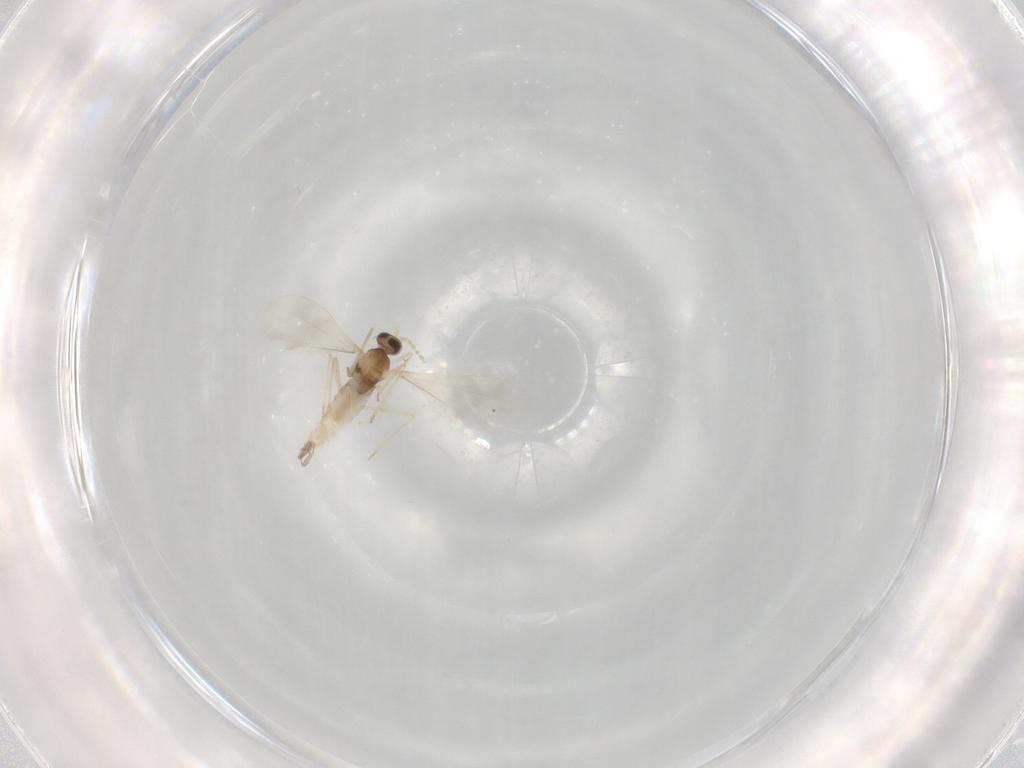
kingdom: Animalia
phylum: Arthropoda
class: Insecta
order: Diptera
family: Cecidomyiidae
